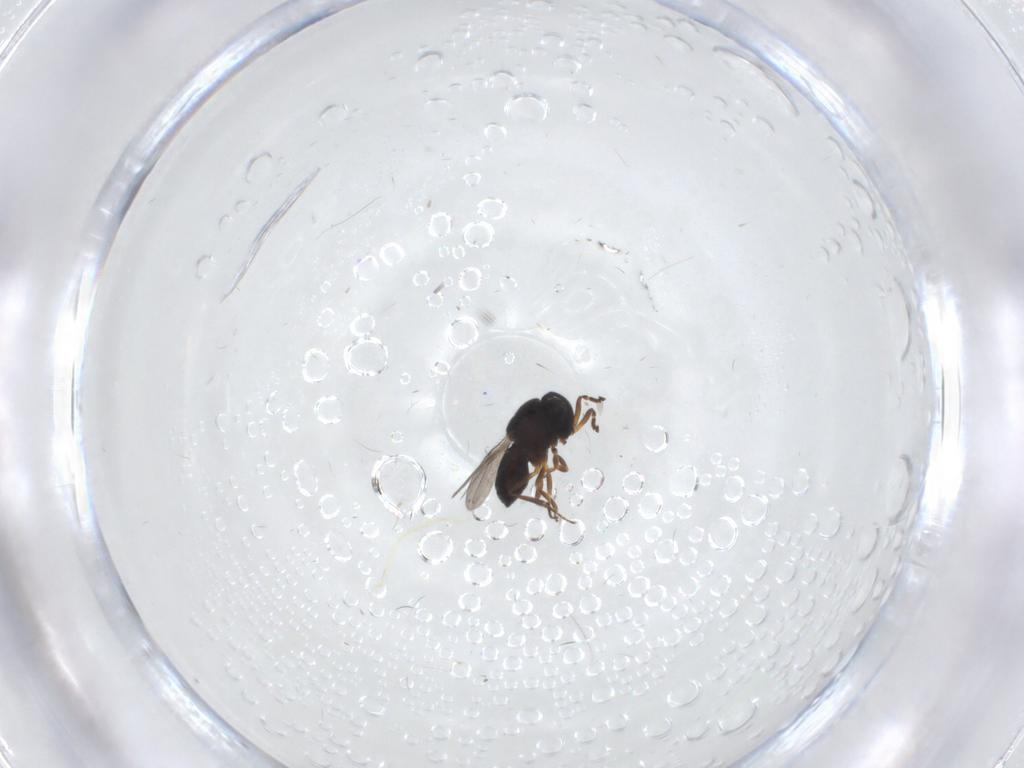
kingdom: Animalia
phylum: Arthropoda
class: Insecta
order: Hymenoptera
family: Scelionidae
